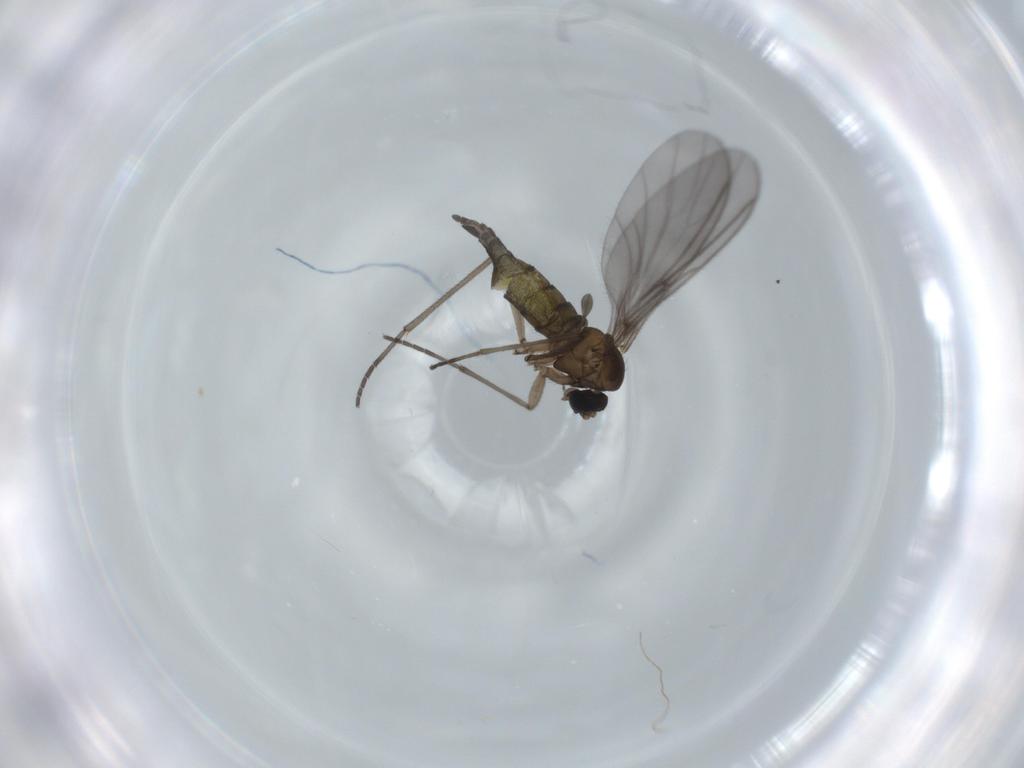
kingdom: Animalia
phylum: Arthropoda
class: Insecta
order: Diptera
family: Sciaridae
